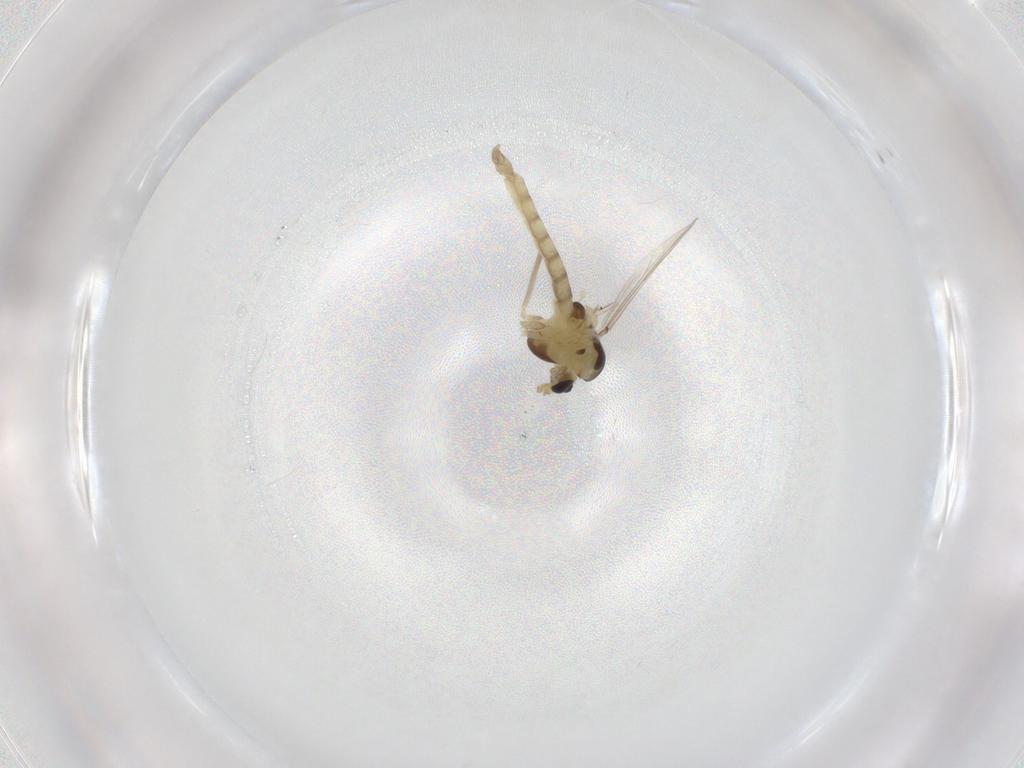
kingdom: Animalia
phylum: Arthropoda
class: Insecta
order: Diptera
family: Chironomidae
